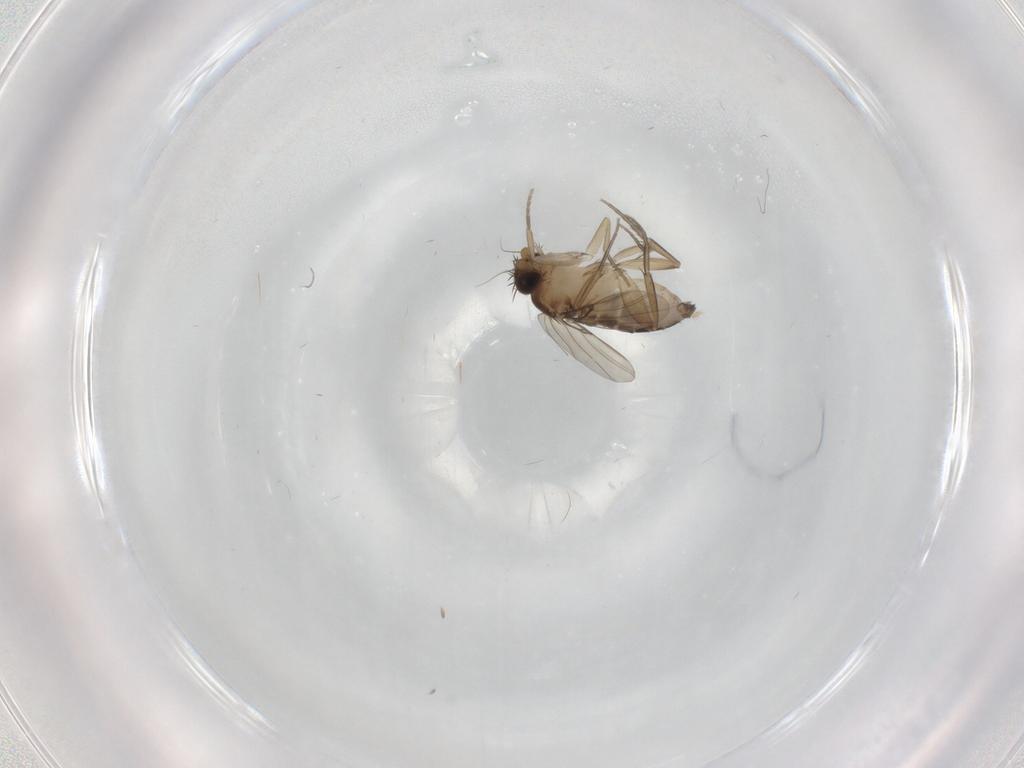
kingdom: Animalia
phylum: Arthropoda
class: Insecta
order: Diptera
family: Phoridae
